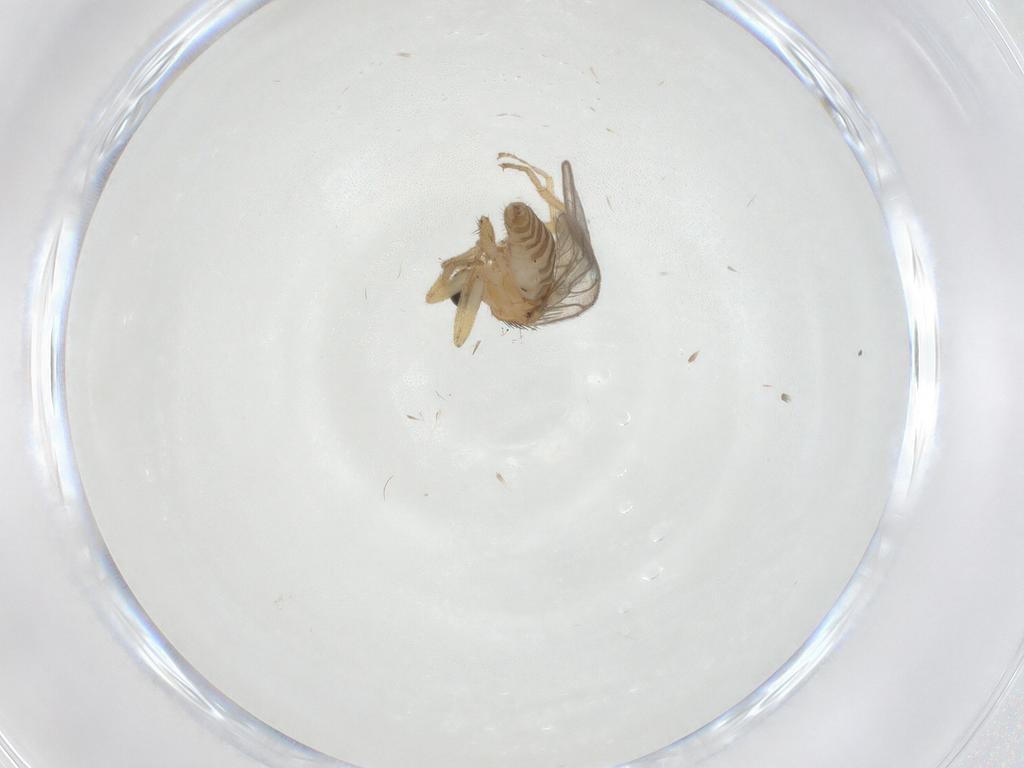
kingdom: Animalia
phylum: Arthropoda
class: Insecta
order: Diptera
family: Hybotidae
